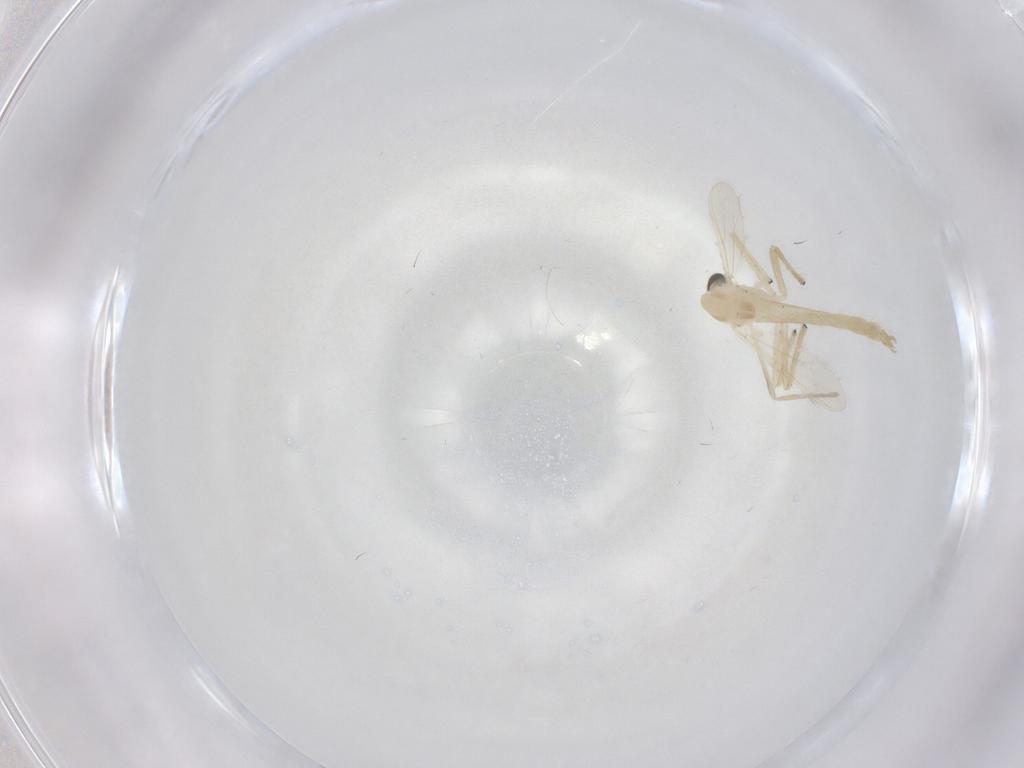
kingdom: Animalia
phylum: Arthropoda
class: Insecta
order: Diptera
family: Chironomidae
